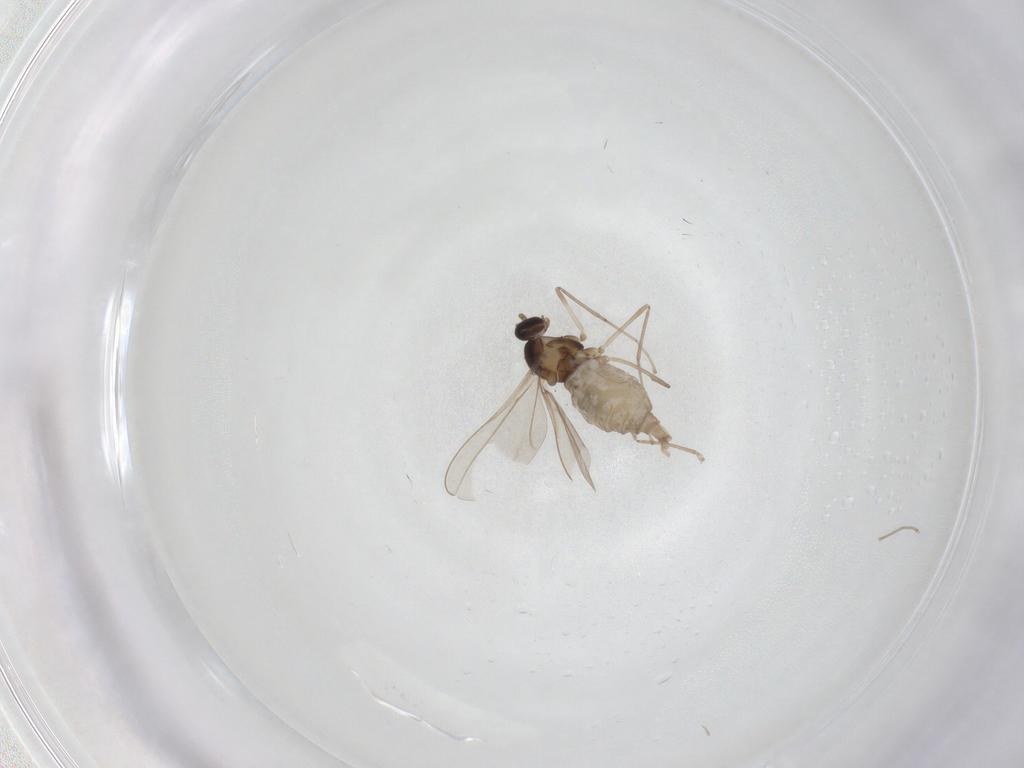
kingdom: Animalia
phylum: Arthropoda
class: Insecta
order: Diptera
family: Cecidomyiidae
